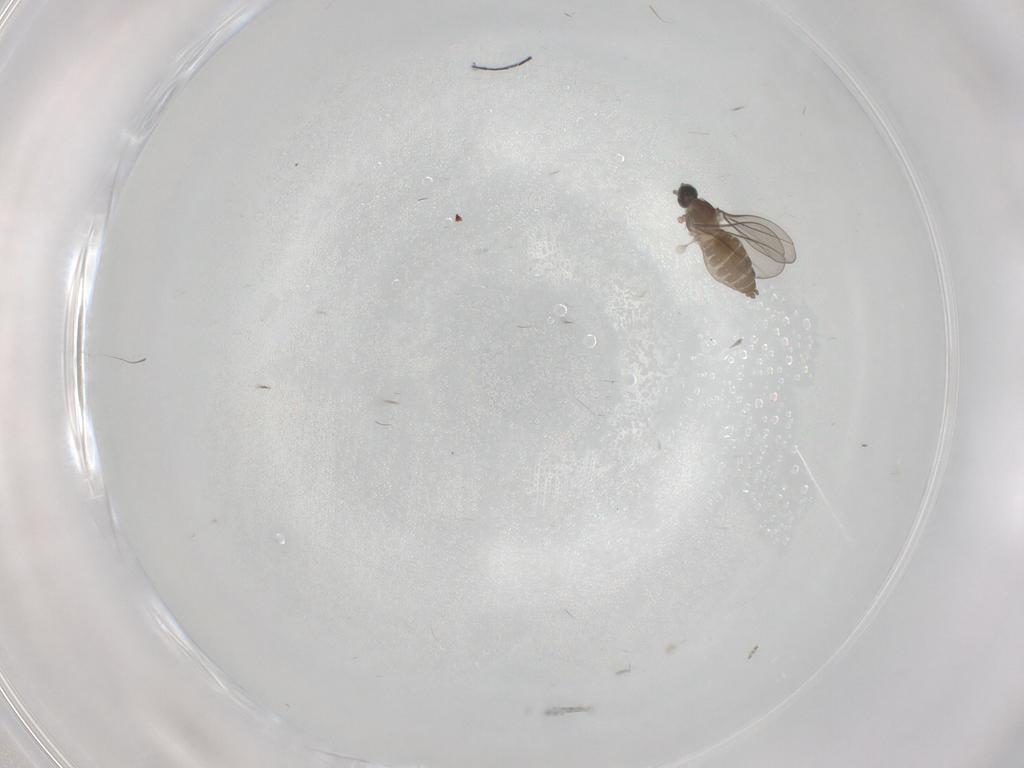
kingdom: Animalia
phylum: Arthropoda
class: Insecta
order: Diptera
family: Cecidomyiidae
